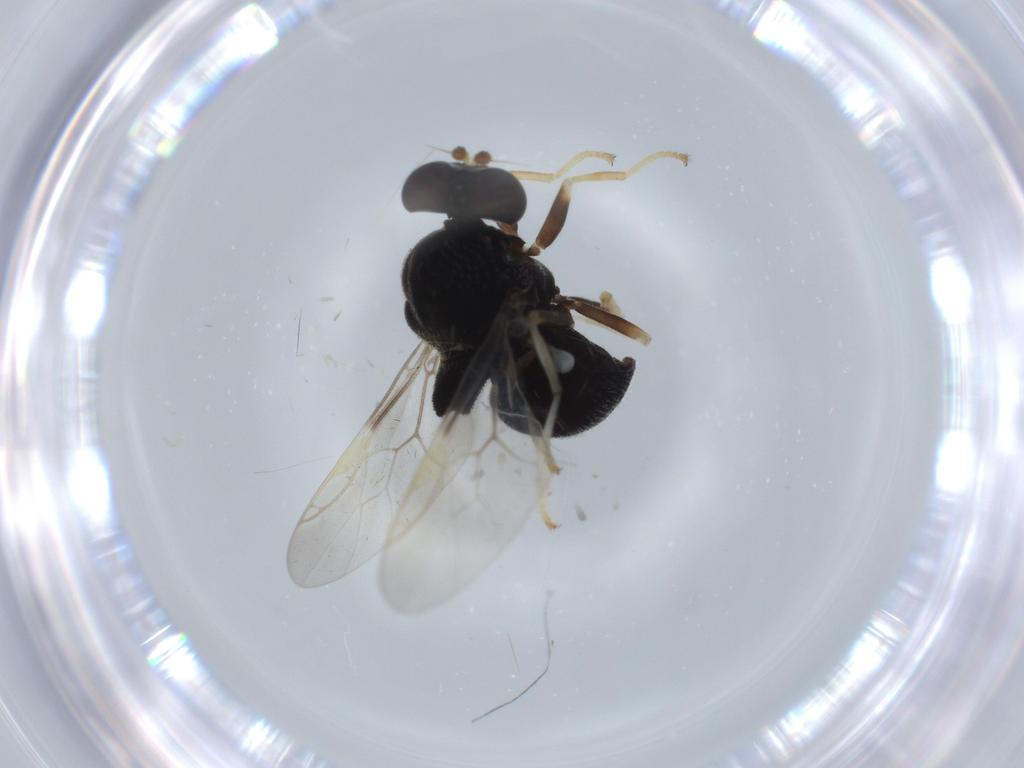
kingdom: Animalia
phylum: Arthropoda
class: Insecta
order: Diptera
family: Stratiomyidae
